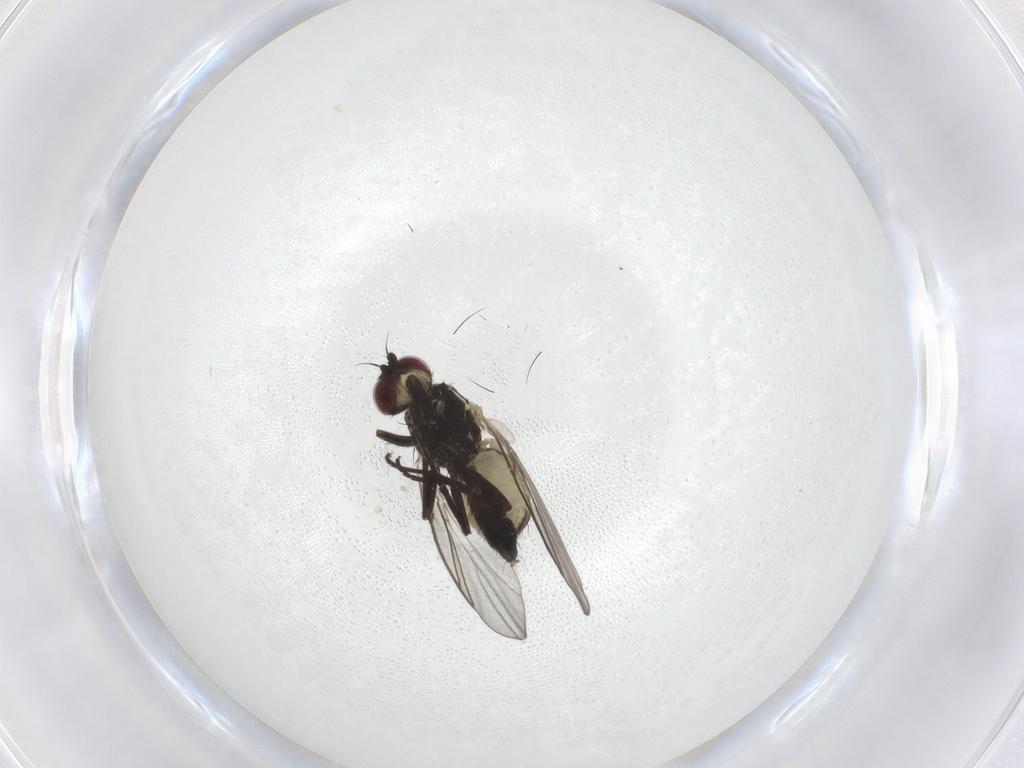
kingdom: Animalia
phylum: Arthropoda
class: Insecta
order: Diptera
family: Agromyzidae
